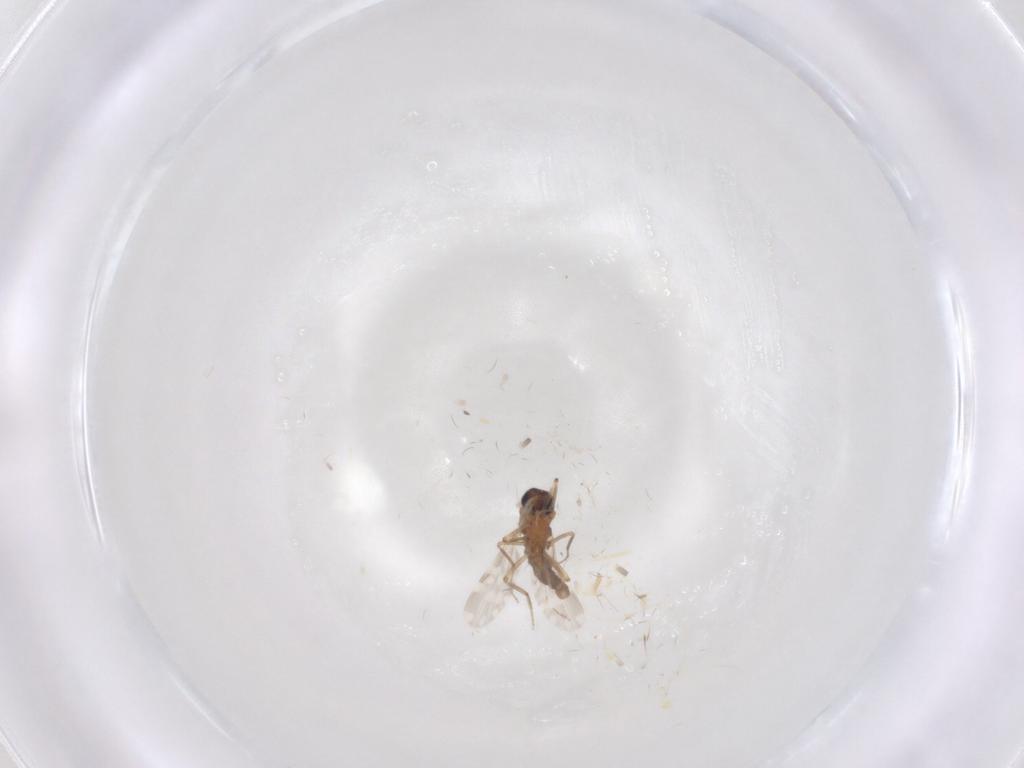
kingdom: Animalia
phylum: Arthropoda
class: Insecta
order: Diptera
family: Ceratopogonidae
